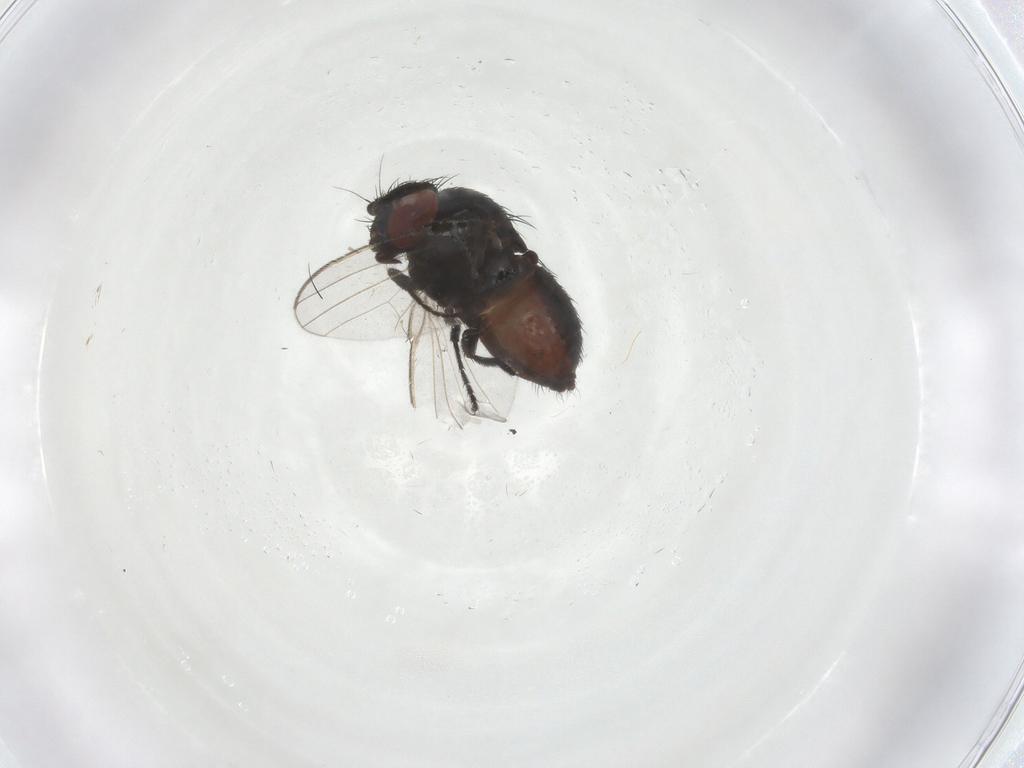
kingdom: Animalia
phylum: Arthropoda
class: Insecta
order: Diptera
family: Milichiidae
